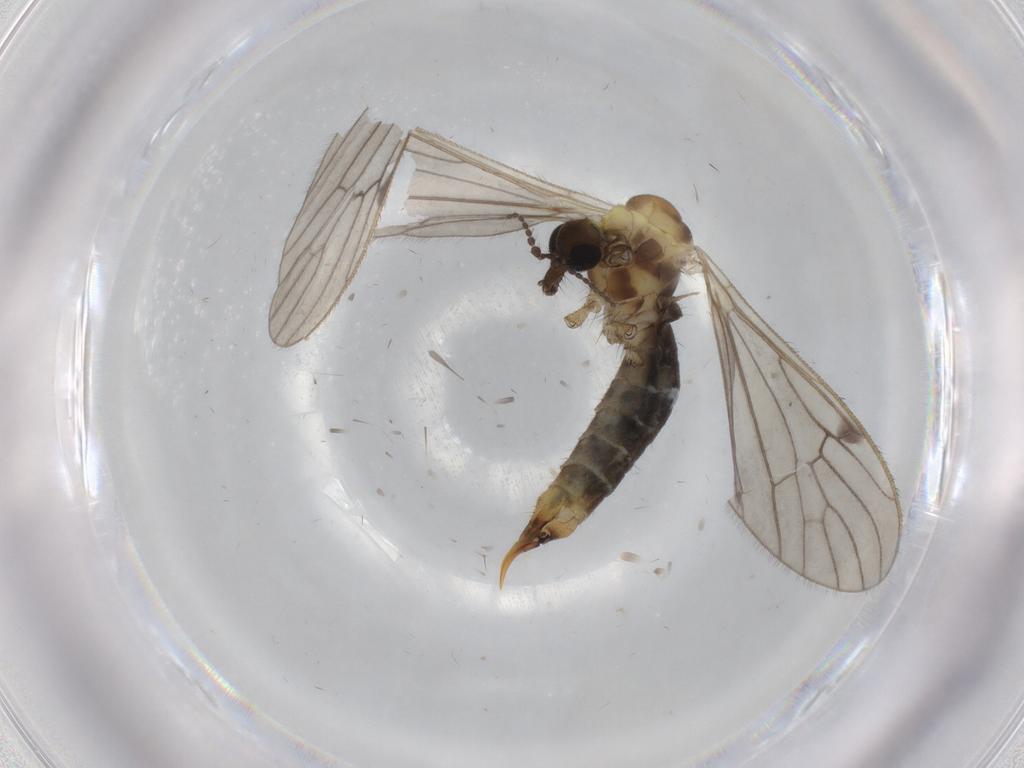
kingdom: Animalia
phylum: Arthropoda
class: Insecta
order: Diptera
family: Limoniidae
